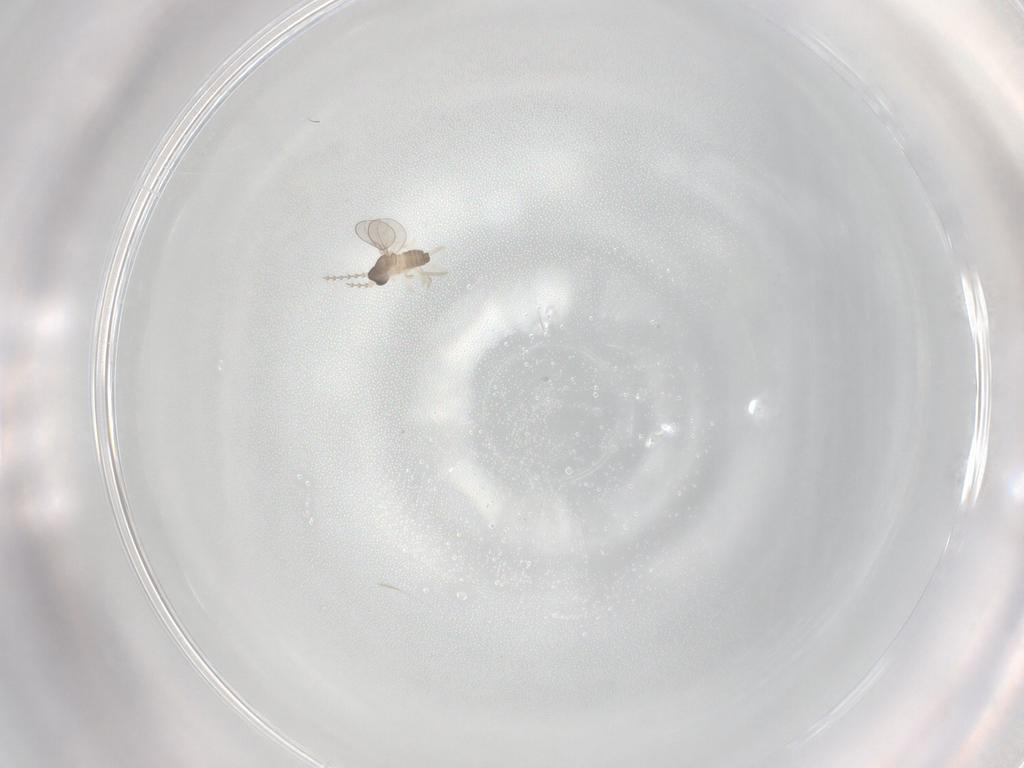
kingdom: Animalia
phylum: Arthropoda
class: Insecta
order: Diptera
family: Cecidomyiidae
